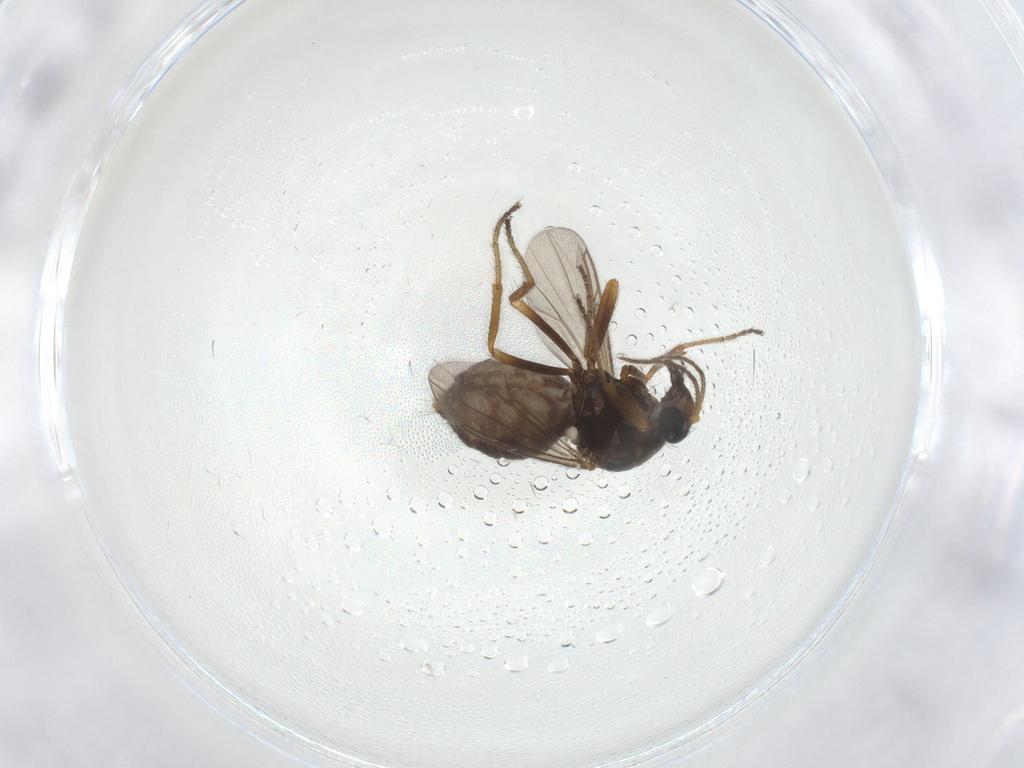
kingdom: Animalia
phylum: Arthropoda
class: Insecta
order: Diptera
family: Ceratopogonidae
